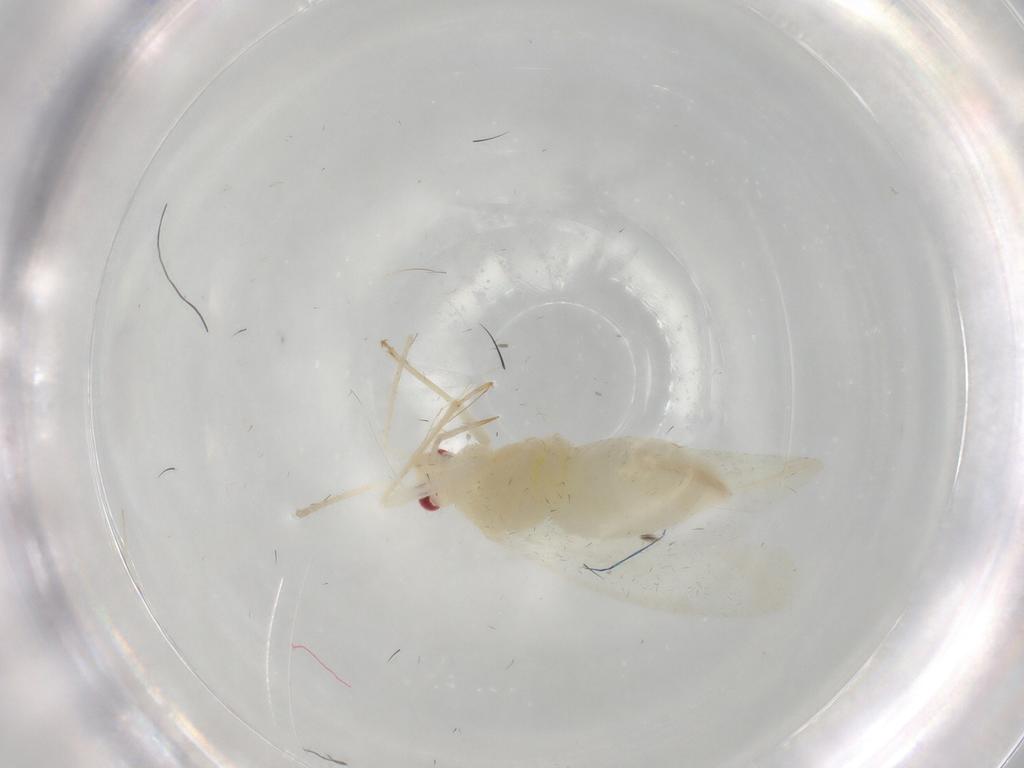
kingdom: Animalia
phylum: Arthropoda
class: Insecta
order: Hemiptera
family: Miridae
